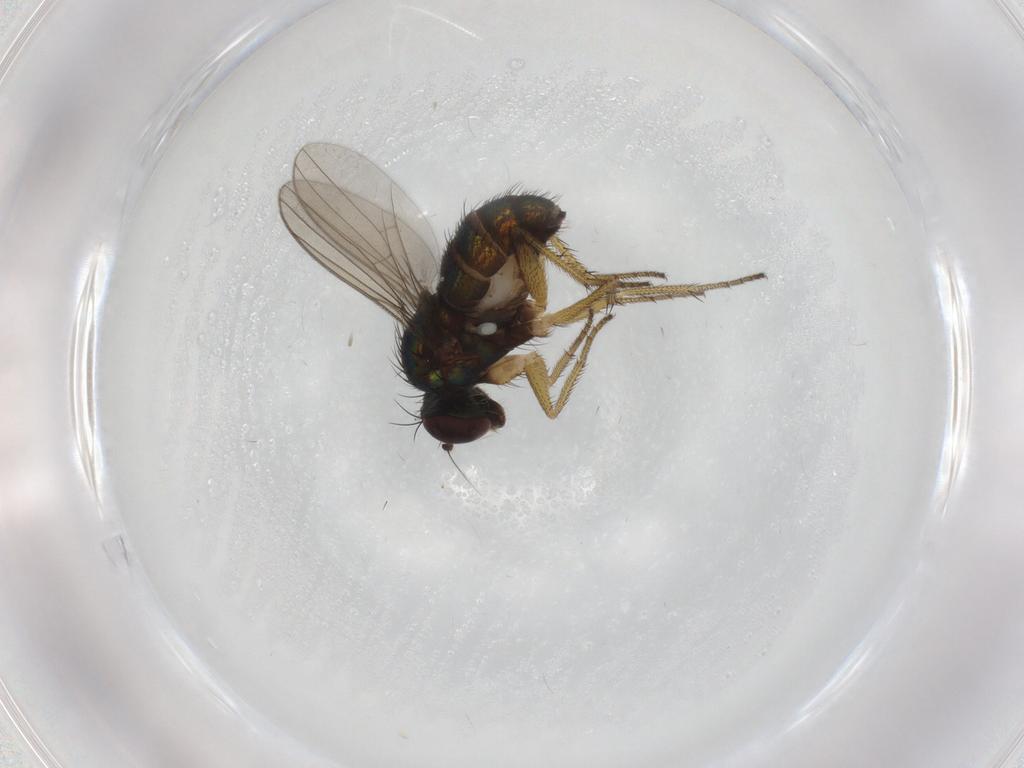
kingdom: Animalia
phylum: Arthropoda
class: Insecta
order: Diptera
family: Dolichopodidae
